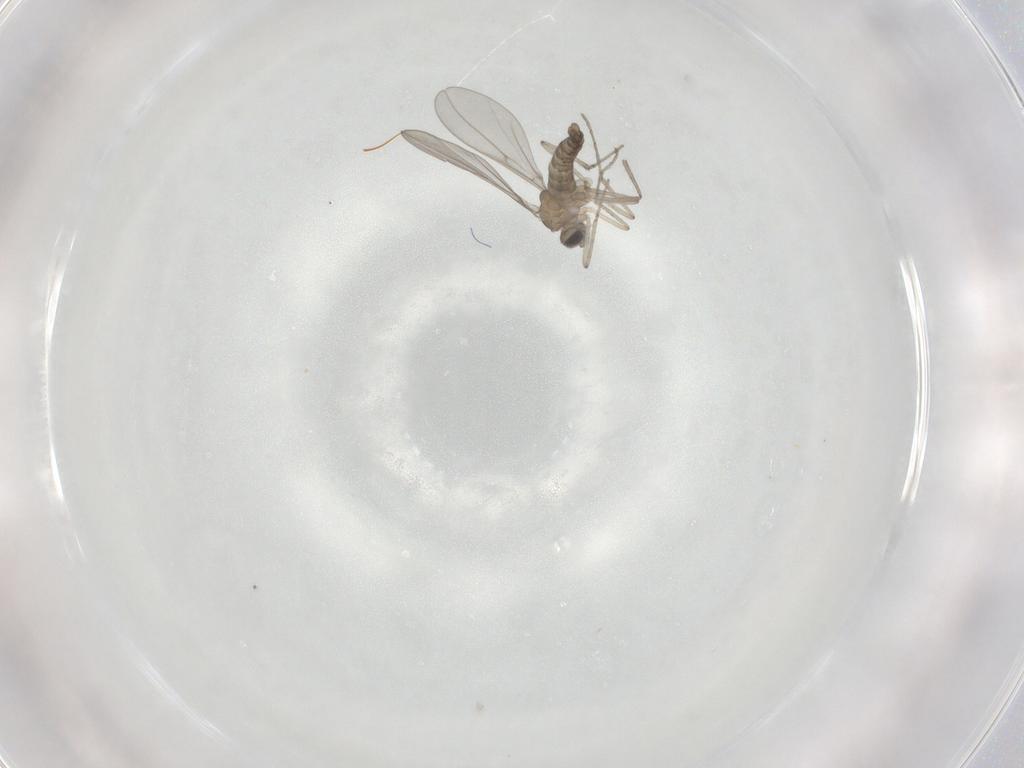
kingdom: Animalia
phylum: Arthropoda
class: Insecta
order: Diptera
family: Cecidomyiidae
